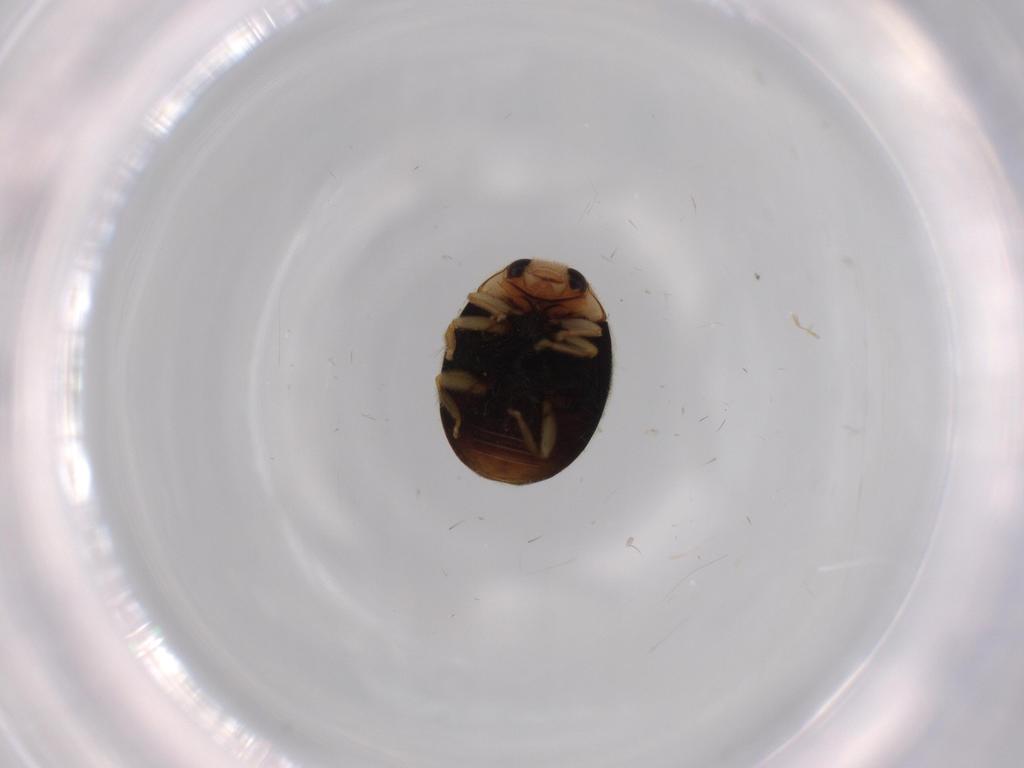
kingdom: Animalia
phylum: Arthropoda
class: Insecta
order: Coleoptera
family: Coccinellidae
